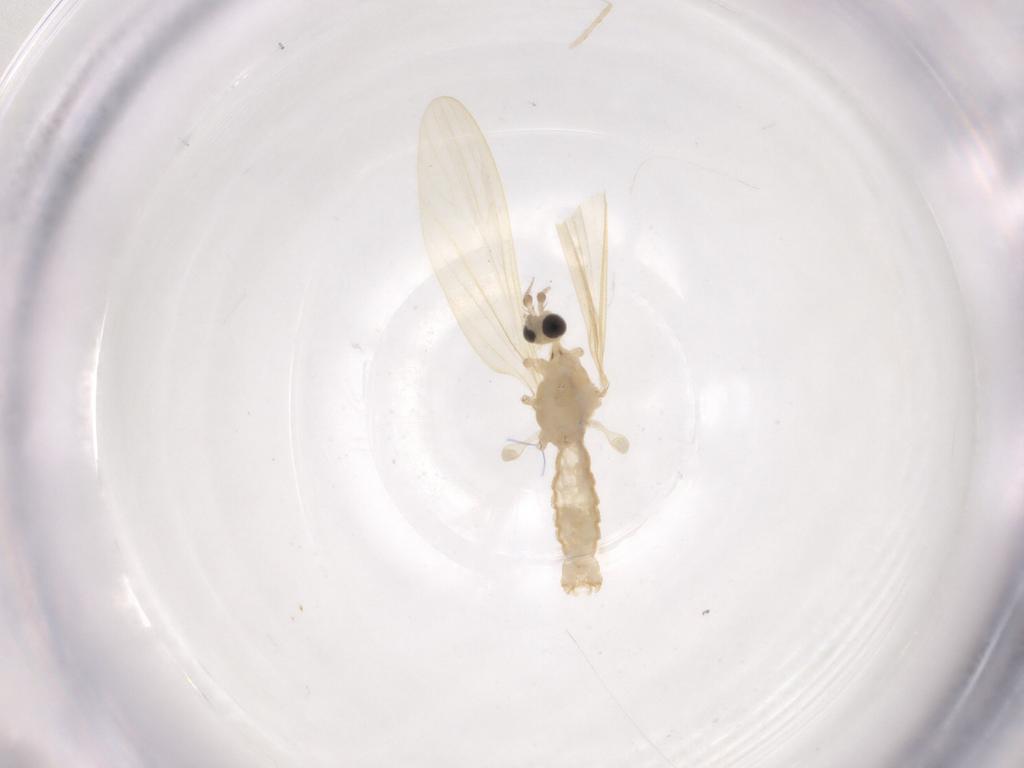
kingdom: Animalia
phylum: Arthropoda
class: Insecta
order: Diptera
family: Limoniidae
